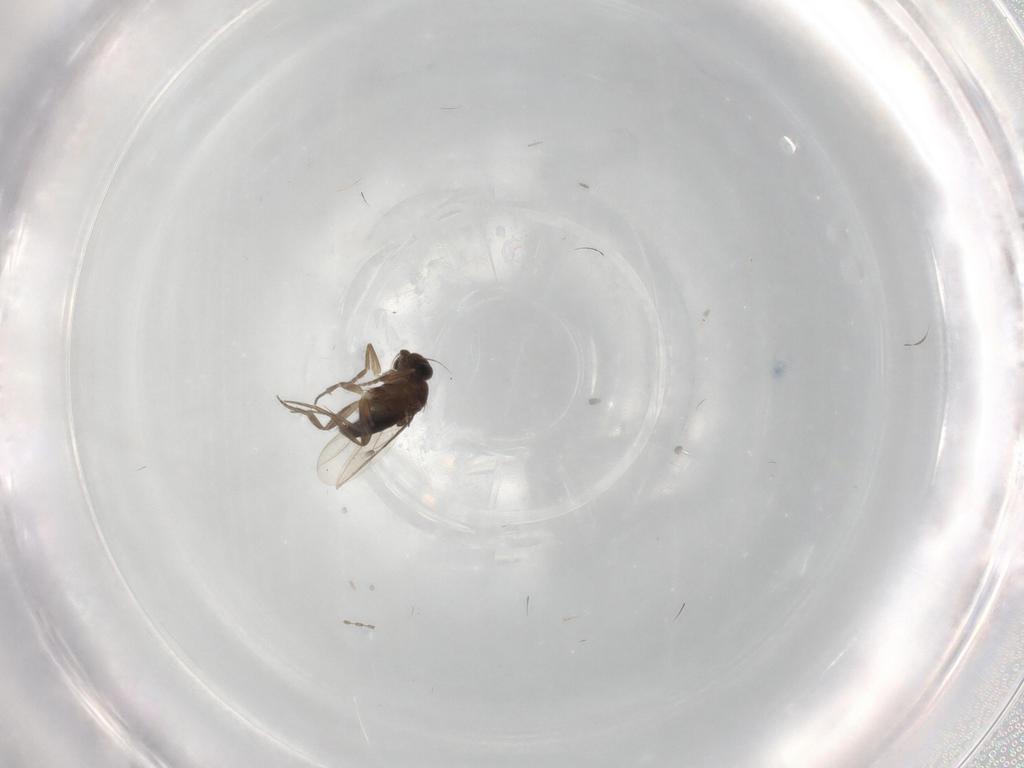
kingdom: Animalia
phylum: Arthropoda
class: Insecta
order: Diptera
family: Phoridae
